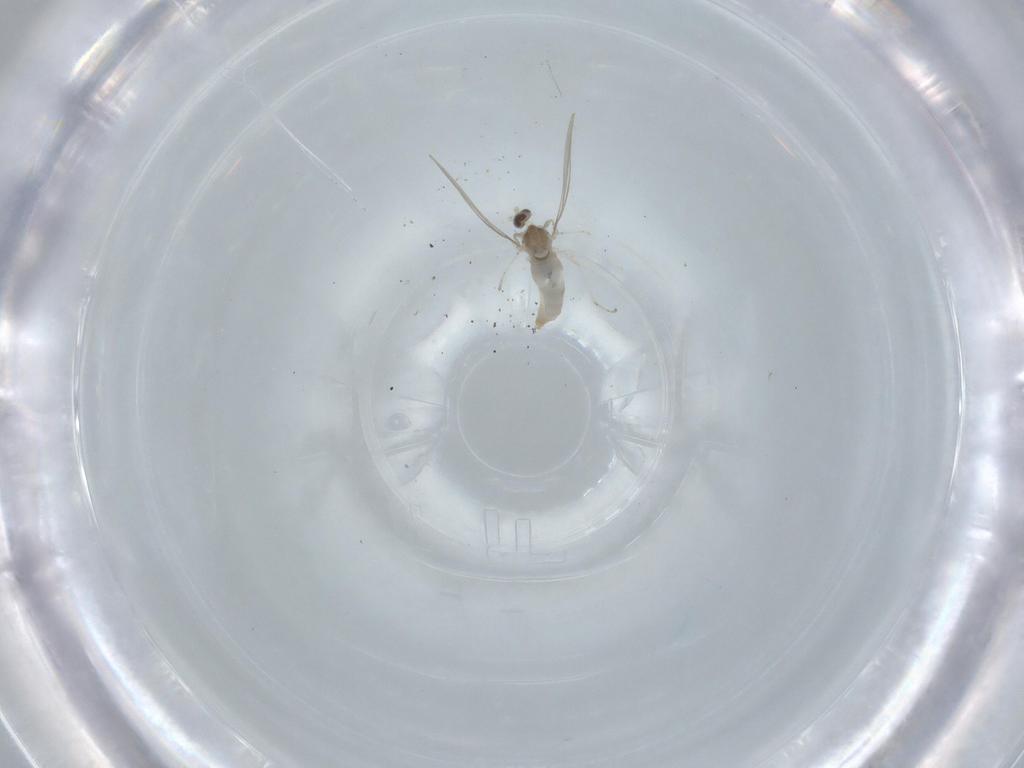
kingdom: Animalia
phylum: Arthropoda
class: Insecta
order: Diptera
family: Cecidomyiidae
